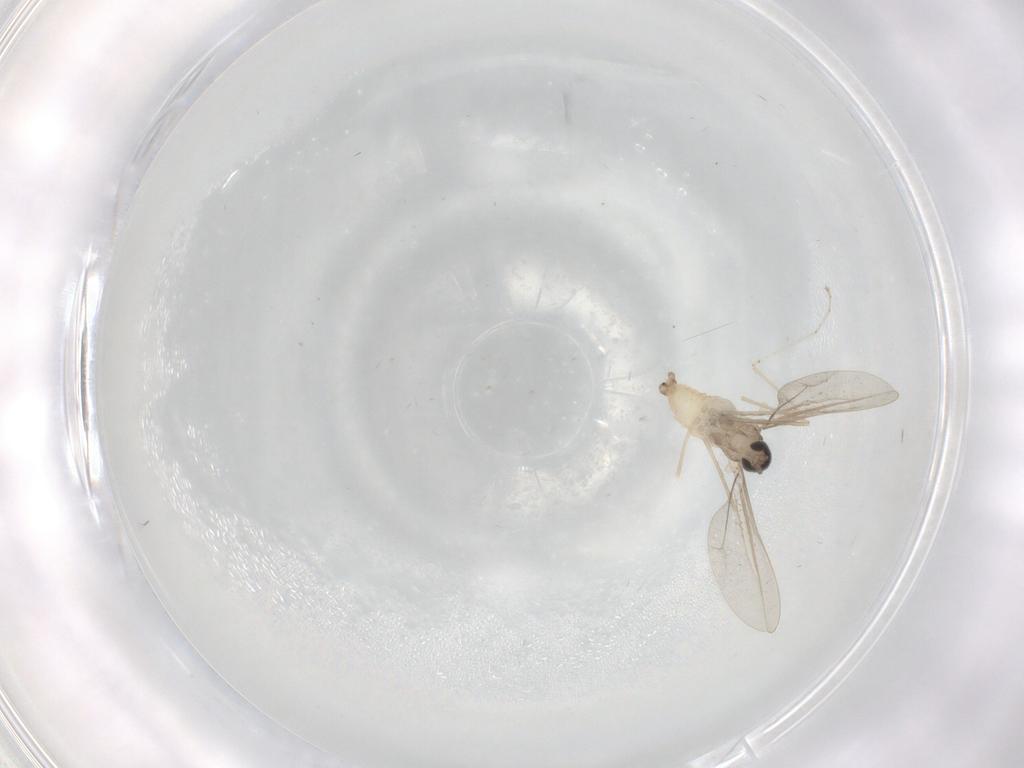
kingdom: Animalia
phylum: Arthropoda
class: Insecta
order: Diptera
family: Cecidomyiidae
